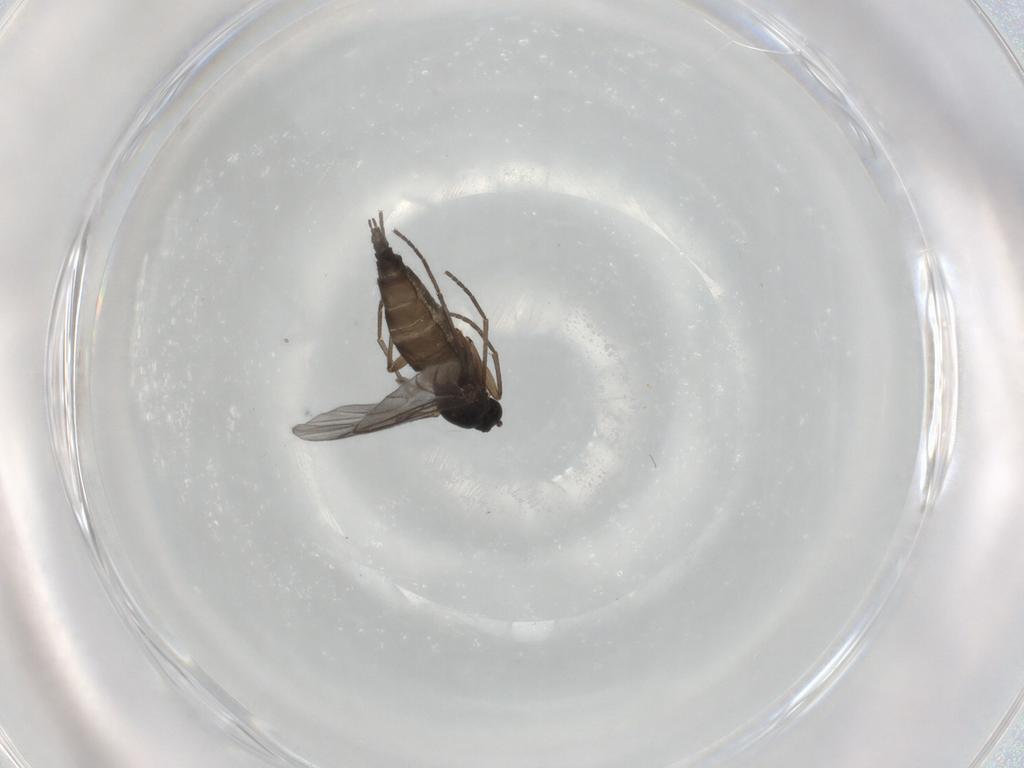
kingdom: Animalia
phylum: Arthropoda
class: Insecta
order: Diptera
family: Sciaridae
